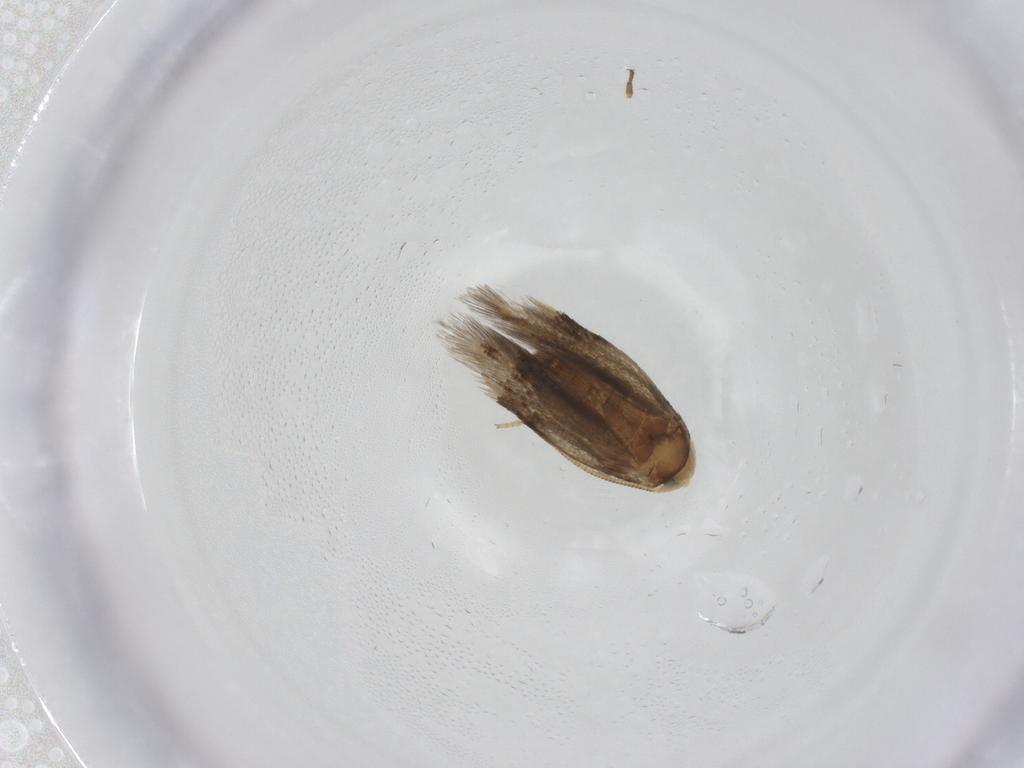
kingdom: Animalia
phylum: Arthropoda
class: Insecta
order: Lepidoptera
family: Nepticulidae
